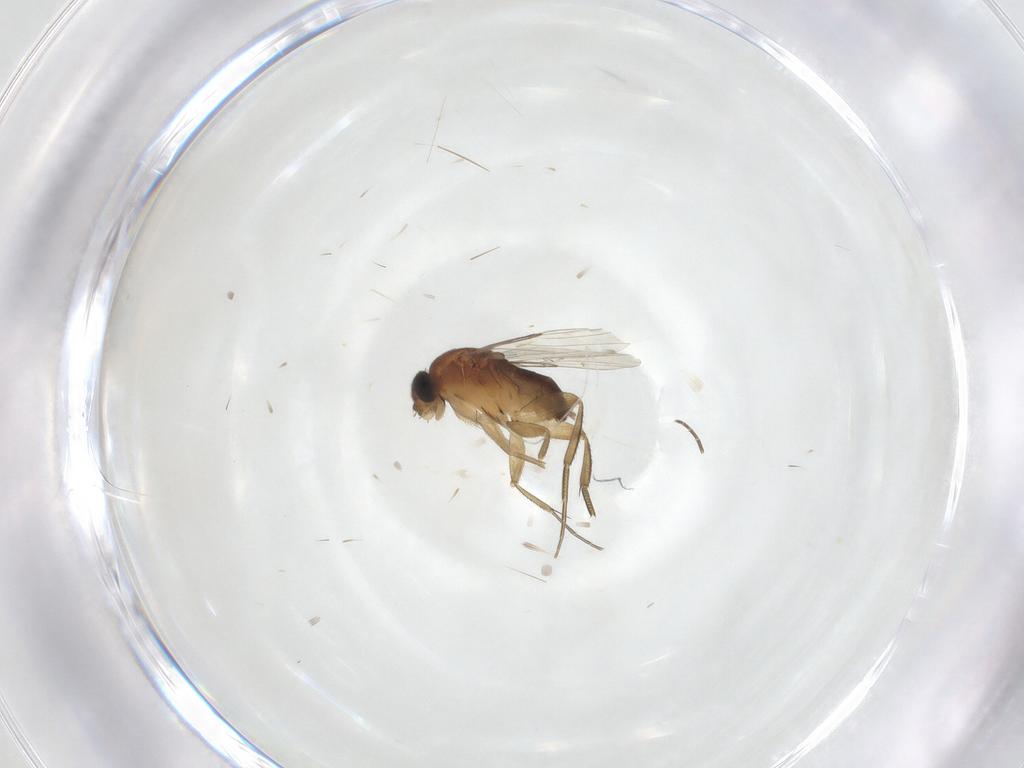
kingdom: Animalia
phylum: Arthropoda
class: Insecta
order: Diptera
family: Phoridae
